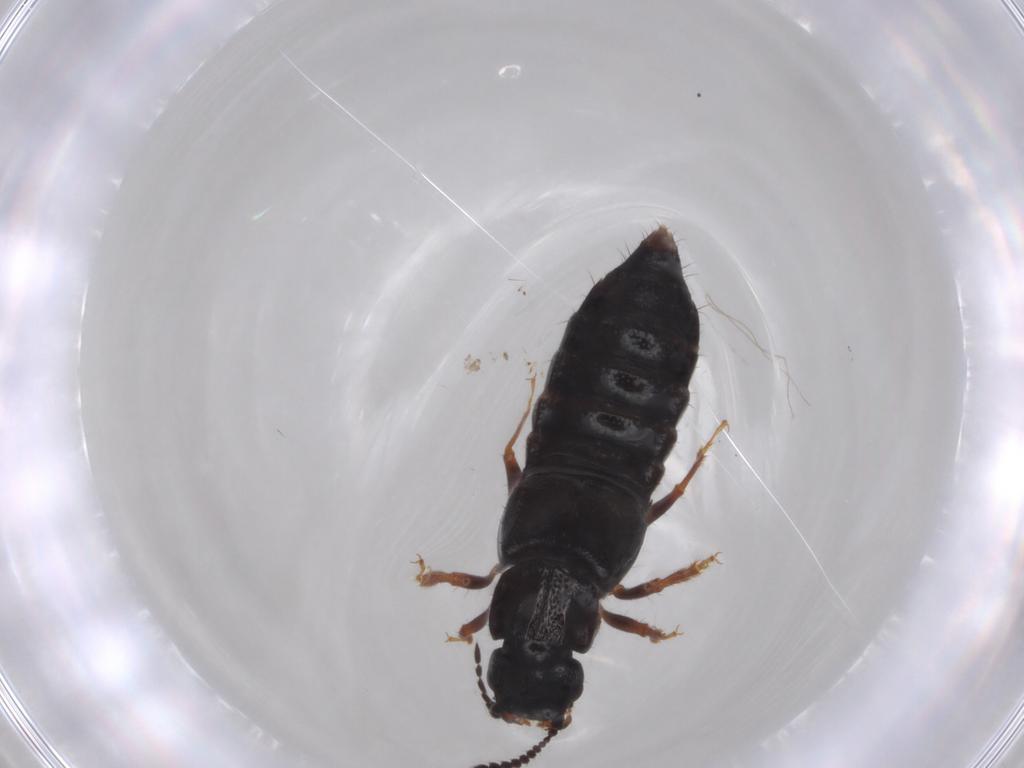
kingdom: Animalia
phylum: Arthropoda
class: Insecta
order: Coleoptera
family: Staphylinidae
